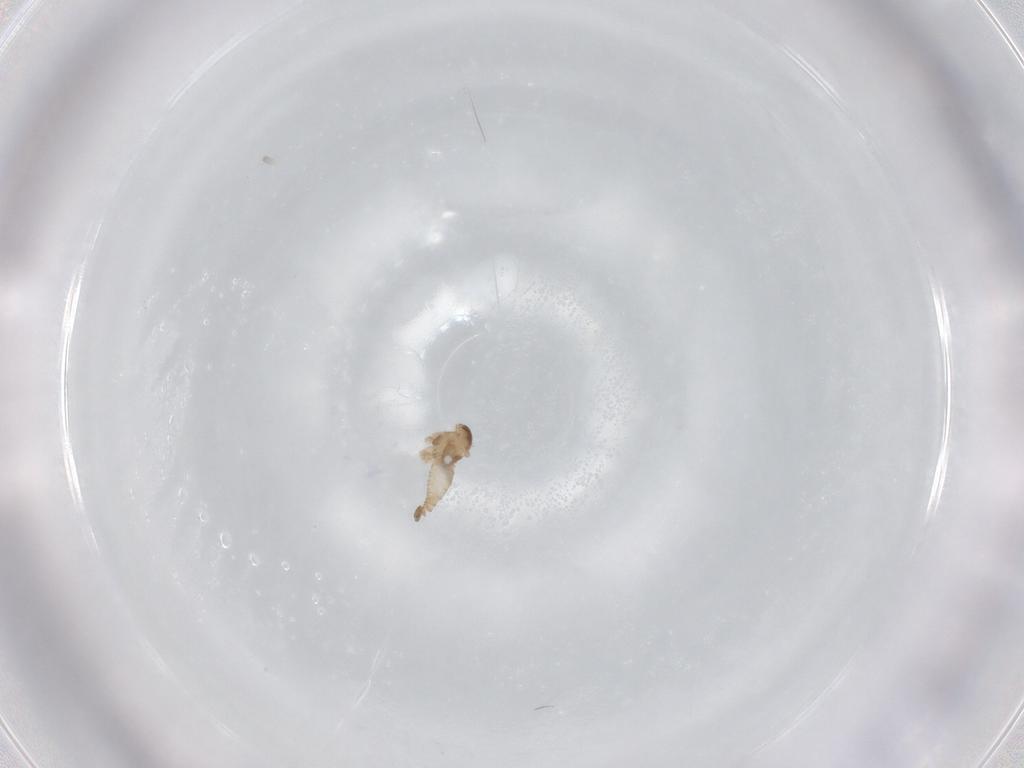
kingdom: Animalia
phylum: Arthropoda
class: Insecta
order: Diptera
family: Cecidomyiidae
